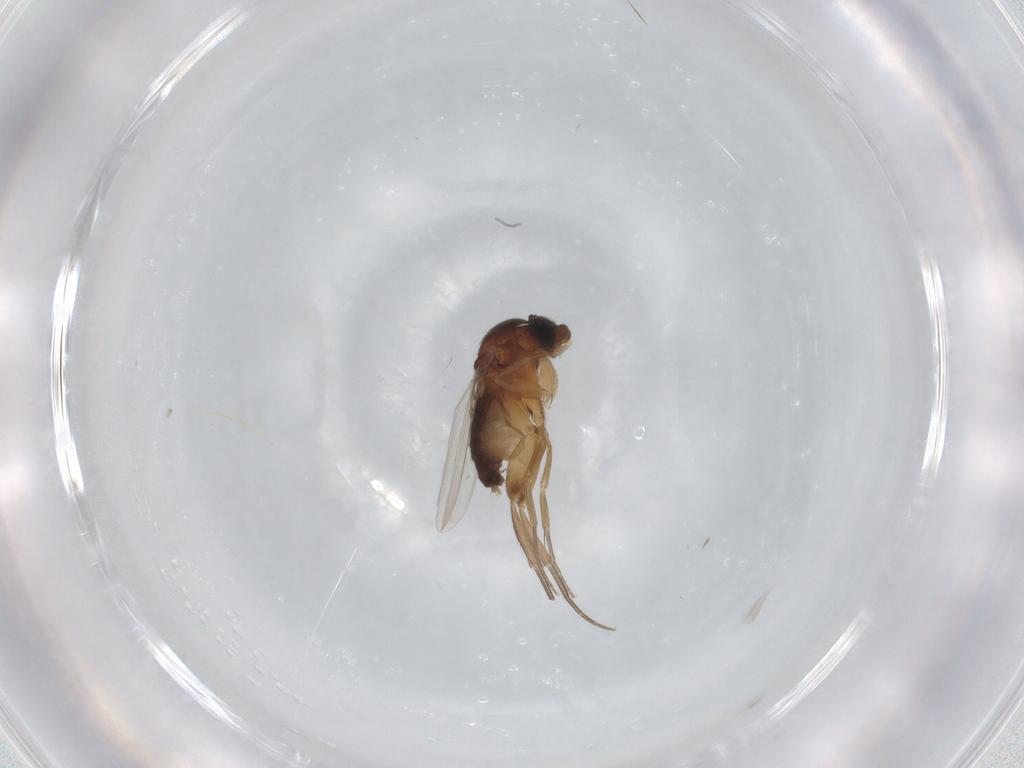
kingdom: Animalia
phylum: Arthropoda
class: Insecta
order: Diptera
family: Phoridae
